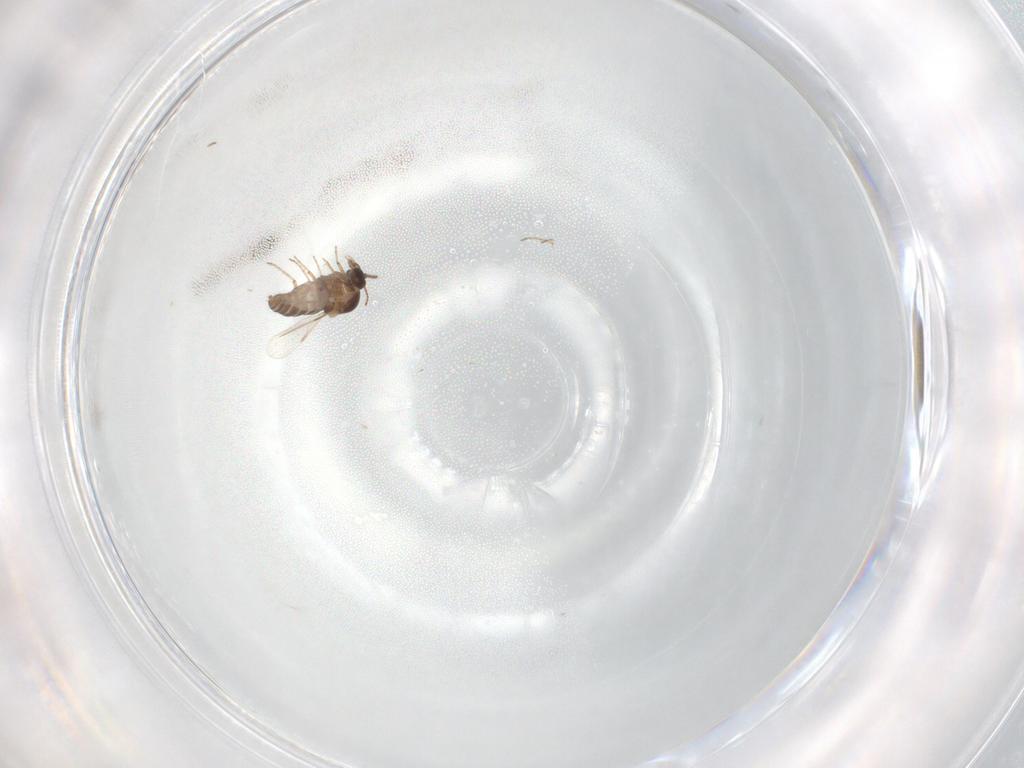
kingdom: Animalia
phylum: Arthropoda
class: Insecta
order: Diptera
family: Ceratopogonidae
